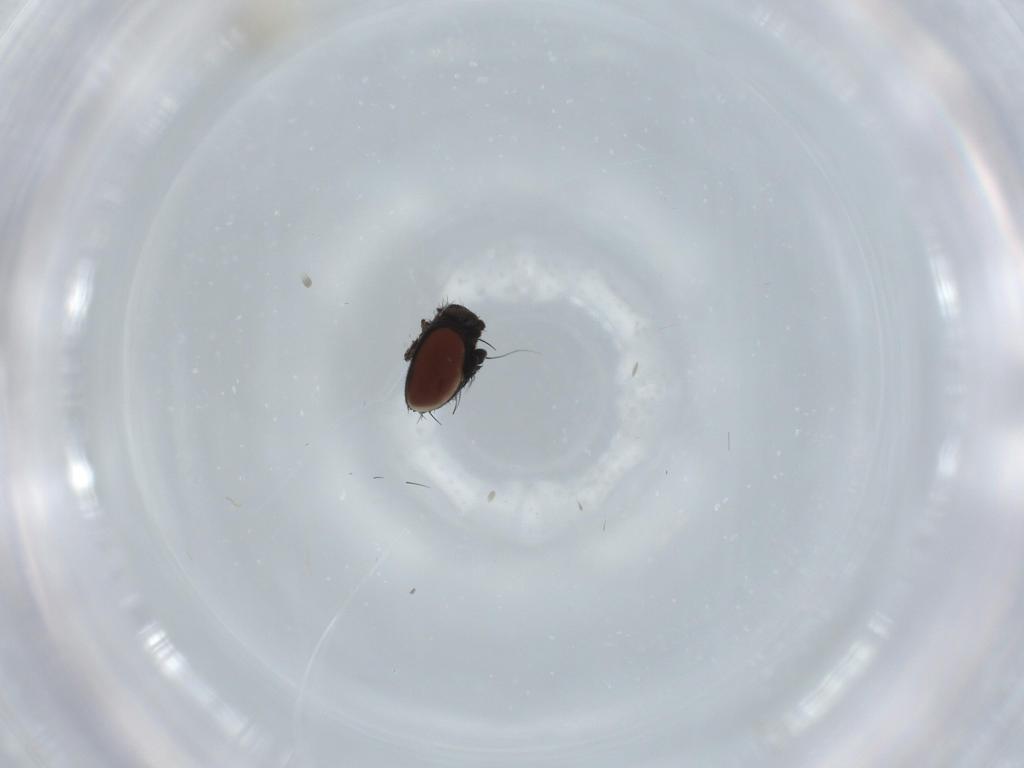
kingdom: Animalia
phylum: Arthropoda
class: Insecta
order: Diptera
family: Milichiidae
